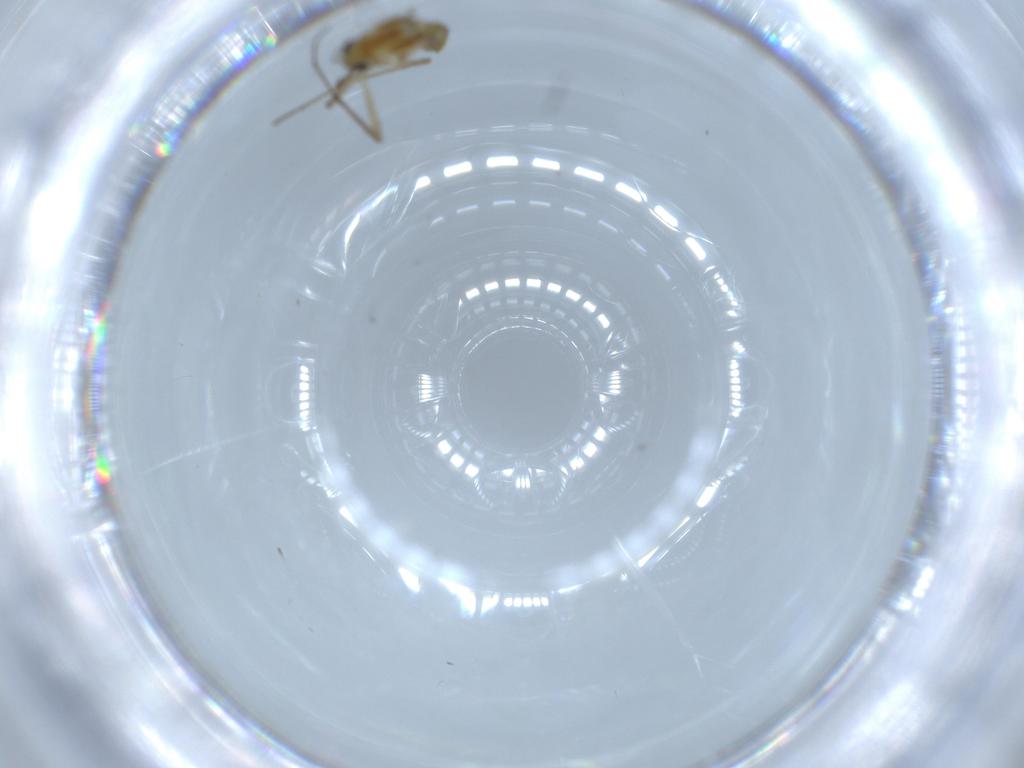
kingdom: Animalia
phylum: Arthropoda
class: Insecta
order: Diptera
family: Chironomidae
